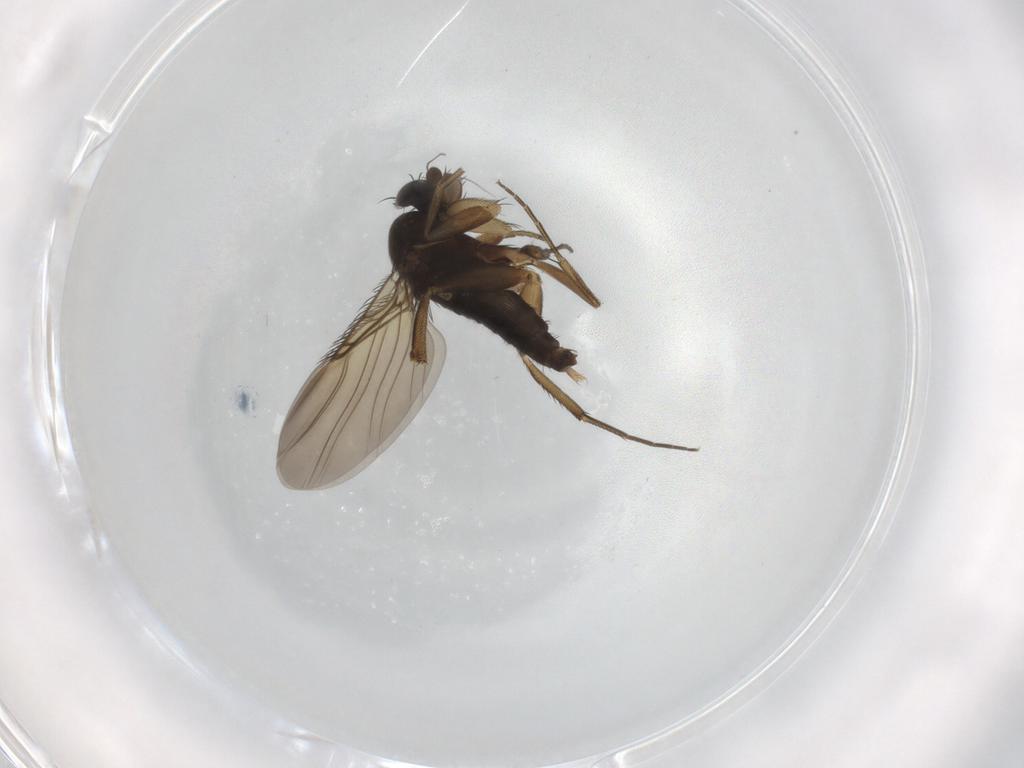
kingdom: Animalia
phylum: Arthropoda
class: Insecta
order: Diptera
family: Phoridae
